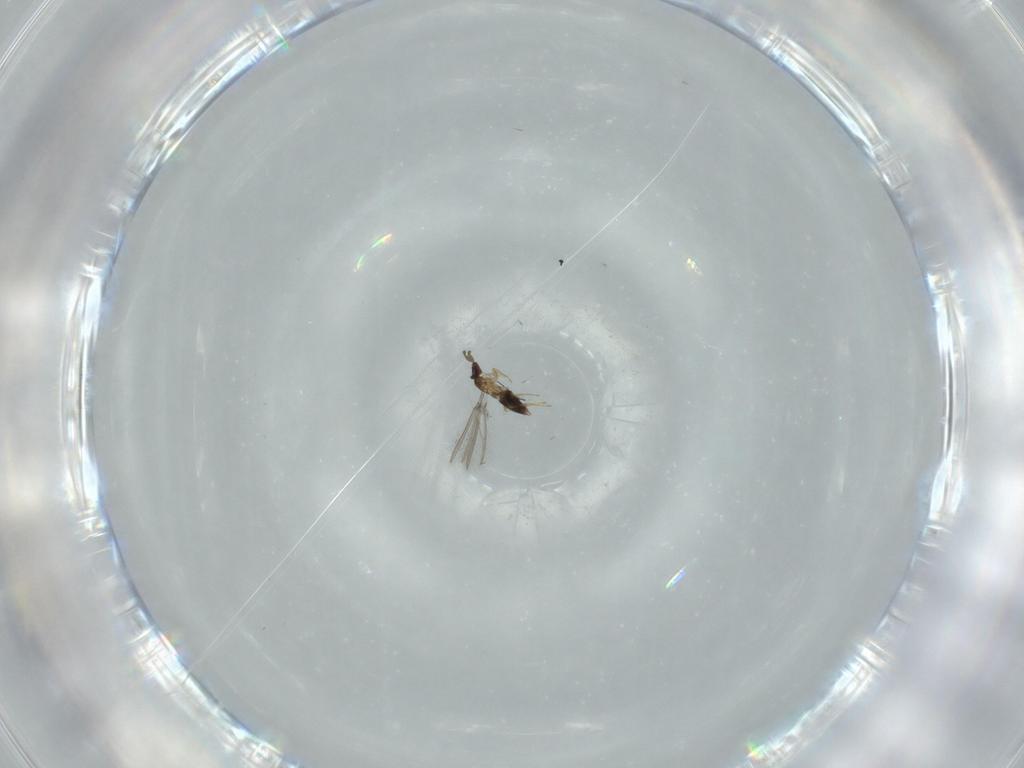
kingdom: Animalia
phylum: Arthropoda
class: Insecta
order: Hymenoptera
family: Mymaridae
